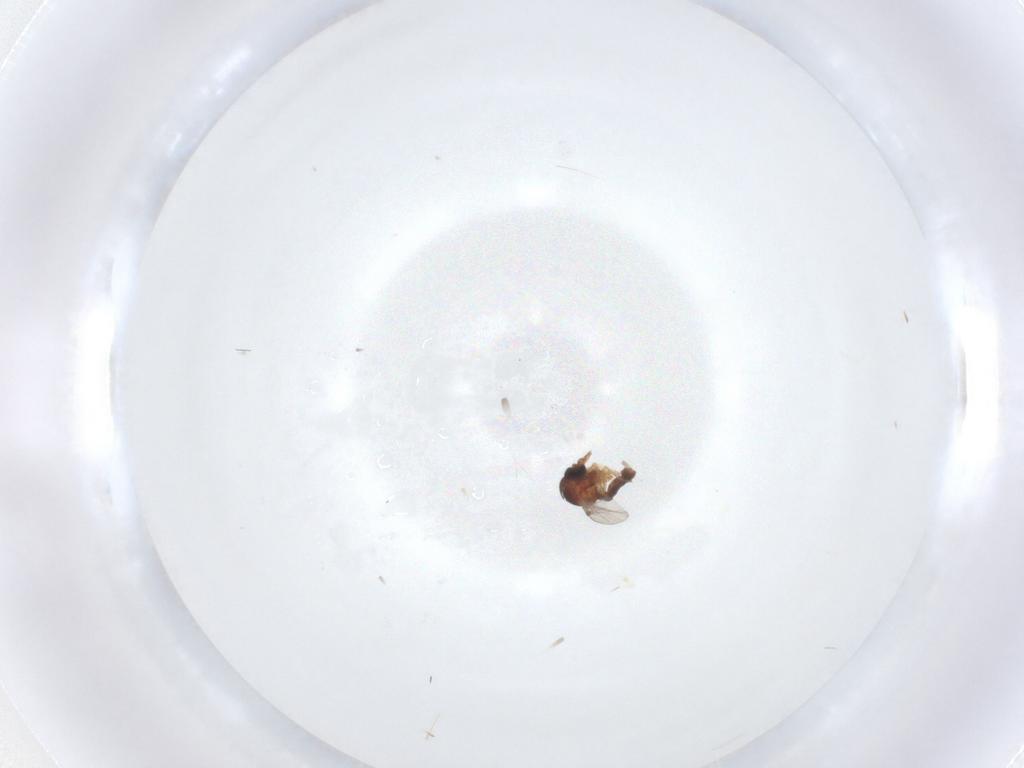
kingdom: Animalia
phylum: Arthropoda
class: Insecta
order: Diptera
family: Ceratopogonidae
